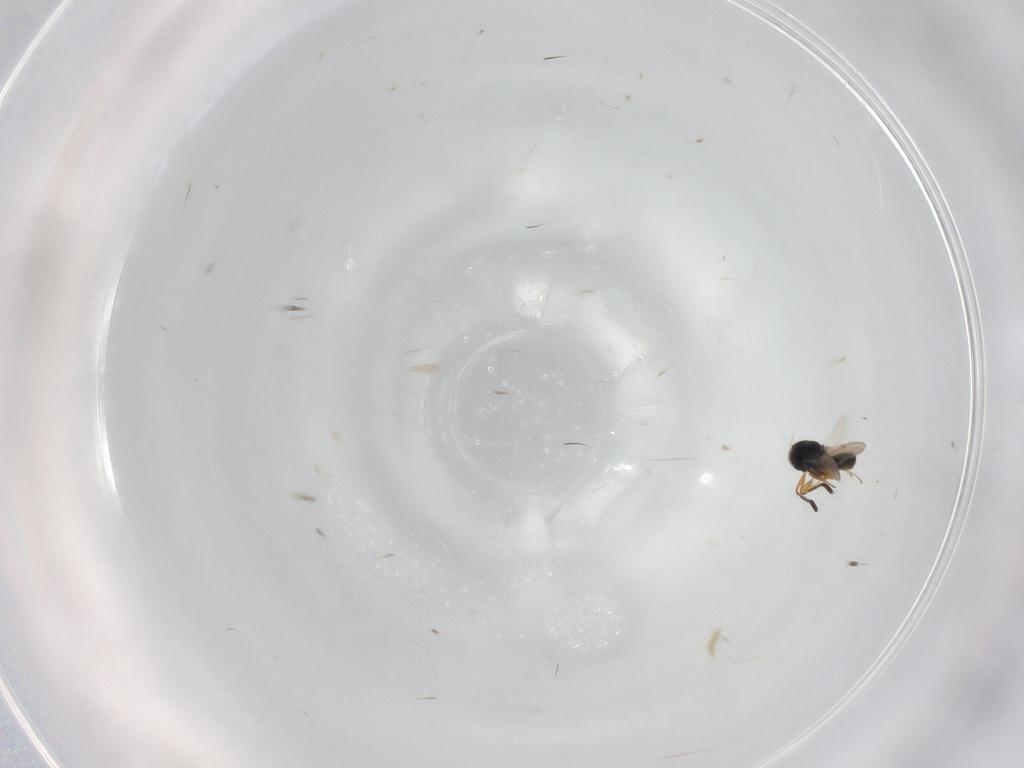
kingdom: Animalia
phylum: Arthropoda
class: Insecta
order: Hymenoptera
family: Scelionidae
